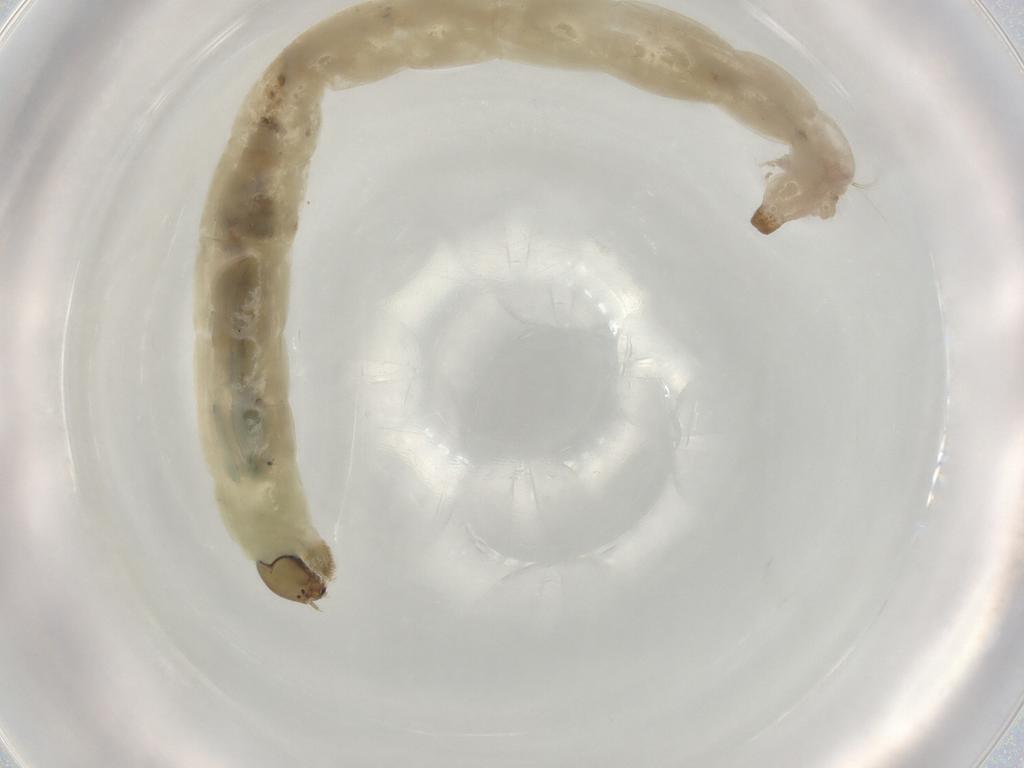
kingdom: Animalia
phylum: Arthropoda
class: Insecta
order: Diptera
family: Chironomidae
